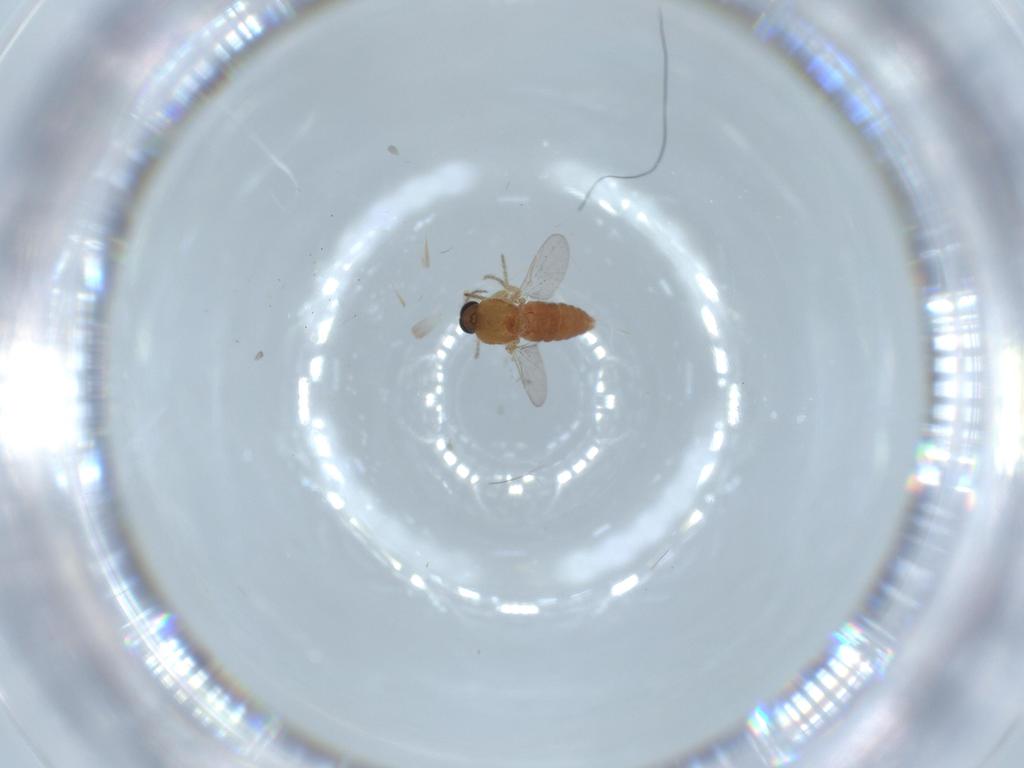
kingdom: Animalia
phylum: Arthropoda
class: Insecta
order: Diptera
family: Ceratopogonidae
